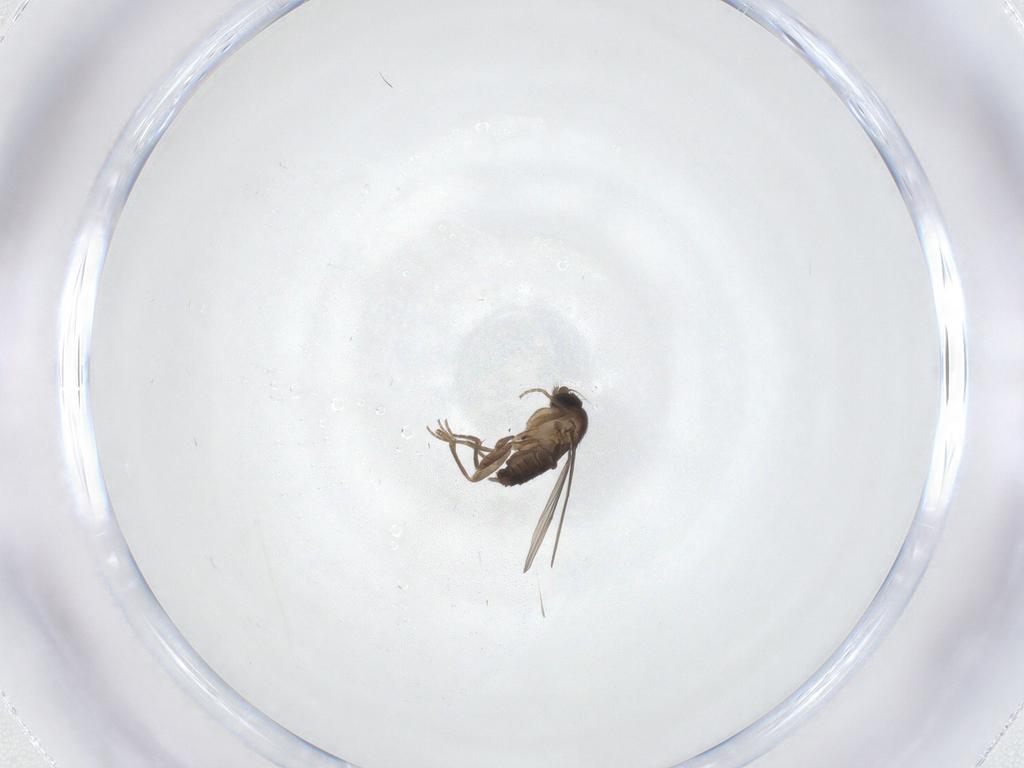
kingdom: Animalia
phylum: Arthropoda
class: Insecta
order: Diptera
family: Phoridae
